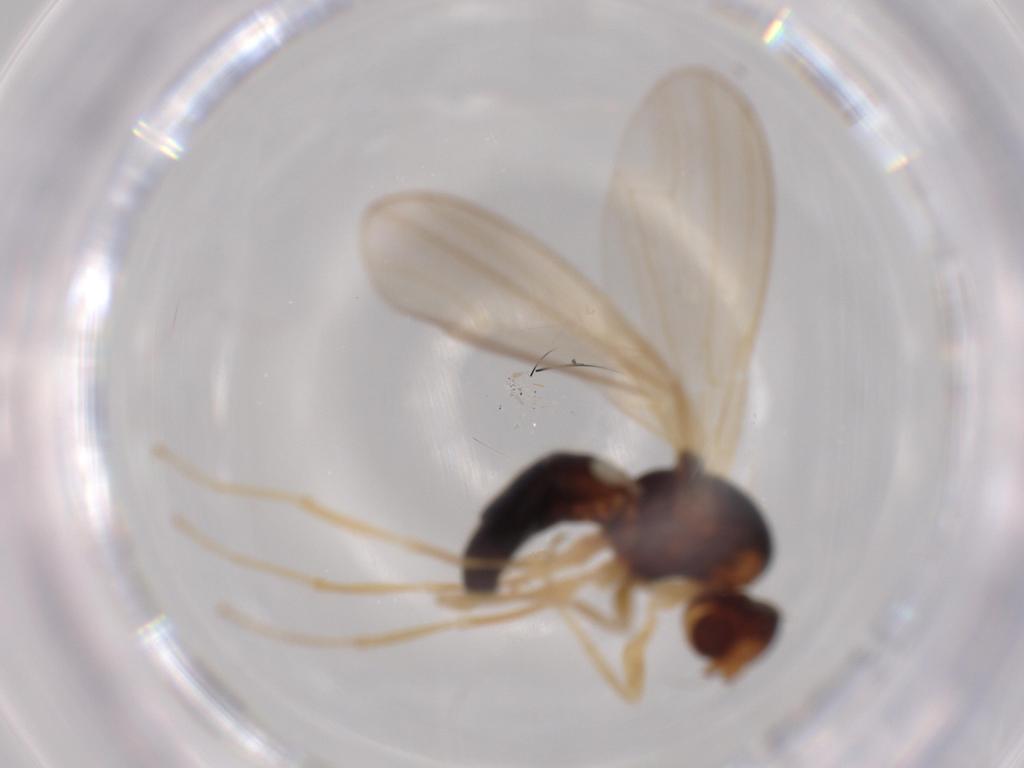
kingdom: Animalia
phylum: Arthropoda
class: Insecta
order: Diptera
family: Psilidae
